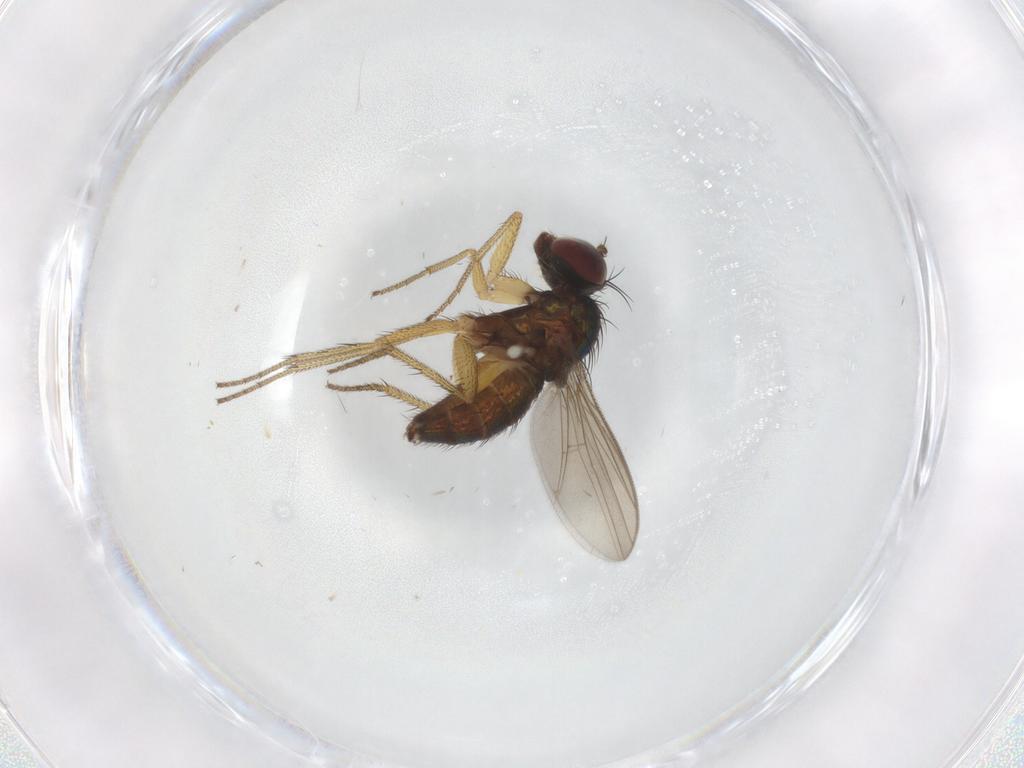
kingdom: Animalia
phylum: Arthropoda
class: Insecta
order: Diptera
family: Chloropidae
